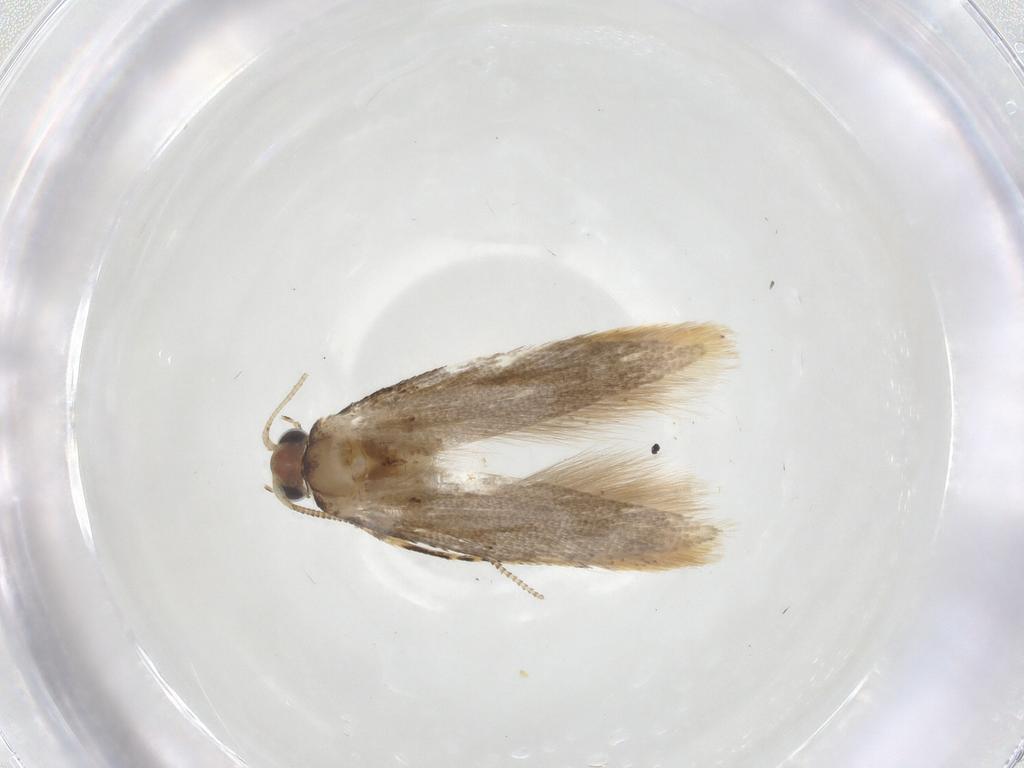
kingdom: Animalia
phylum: Arthropoda
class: Insecta
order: Lepidoptera
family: Meessiidae
